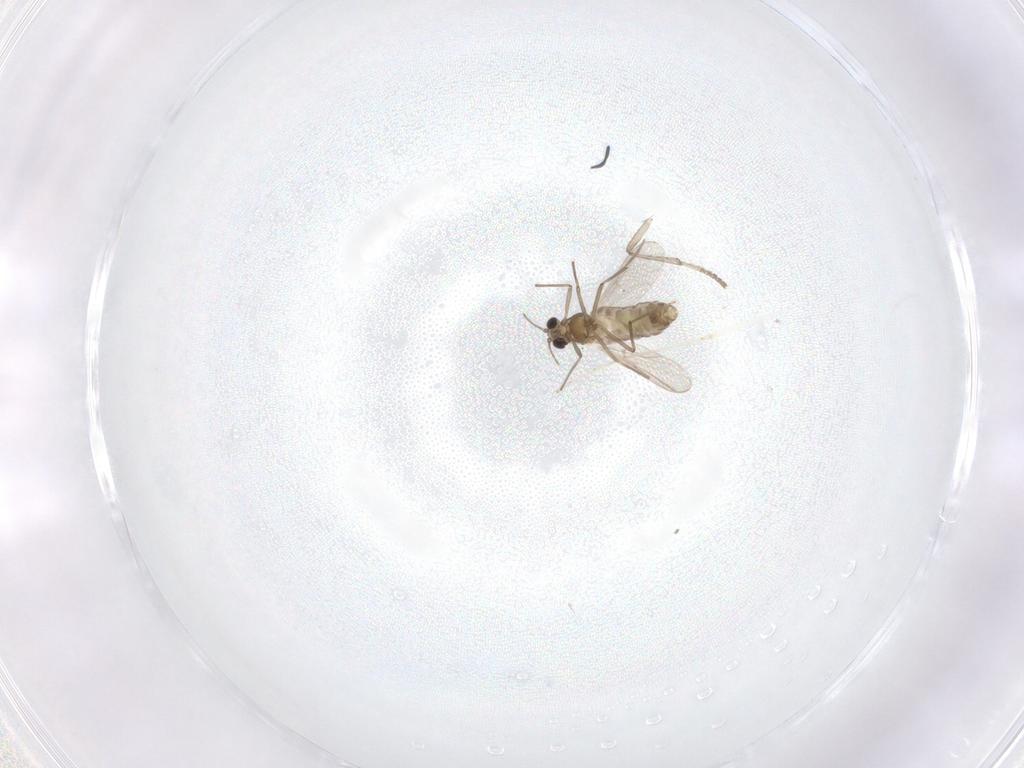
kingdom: Animalia
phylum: Arthropoda
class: Insecta
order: Diptera
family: Chironomidae
